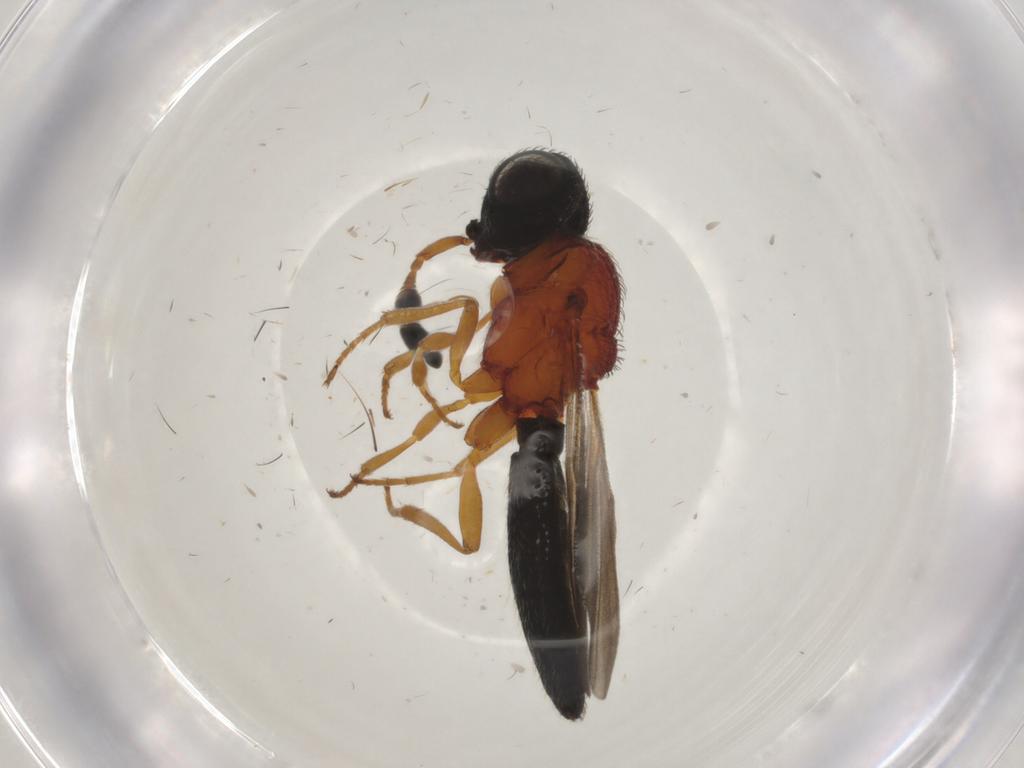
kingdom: Animalia
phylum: Arthropoda
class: Insecta
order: Hymenoptera
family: Scelionidae
